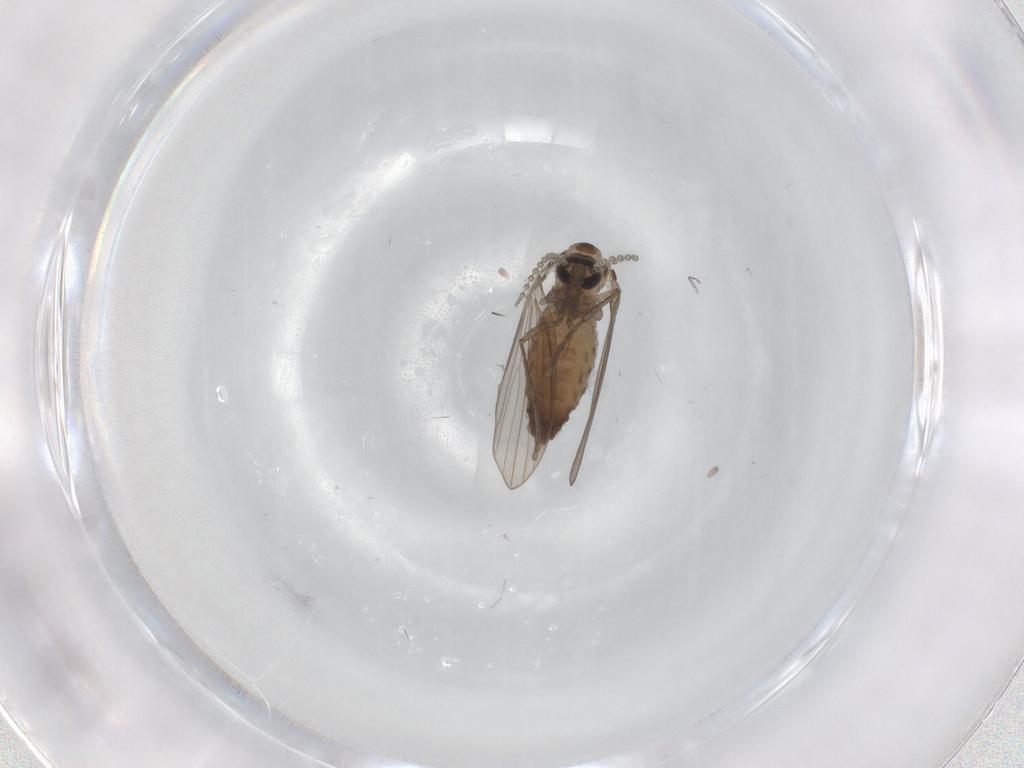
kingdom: Animalia
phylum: Arthropoda
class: Insecta
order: Diptera
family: Psychodidae
